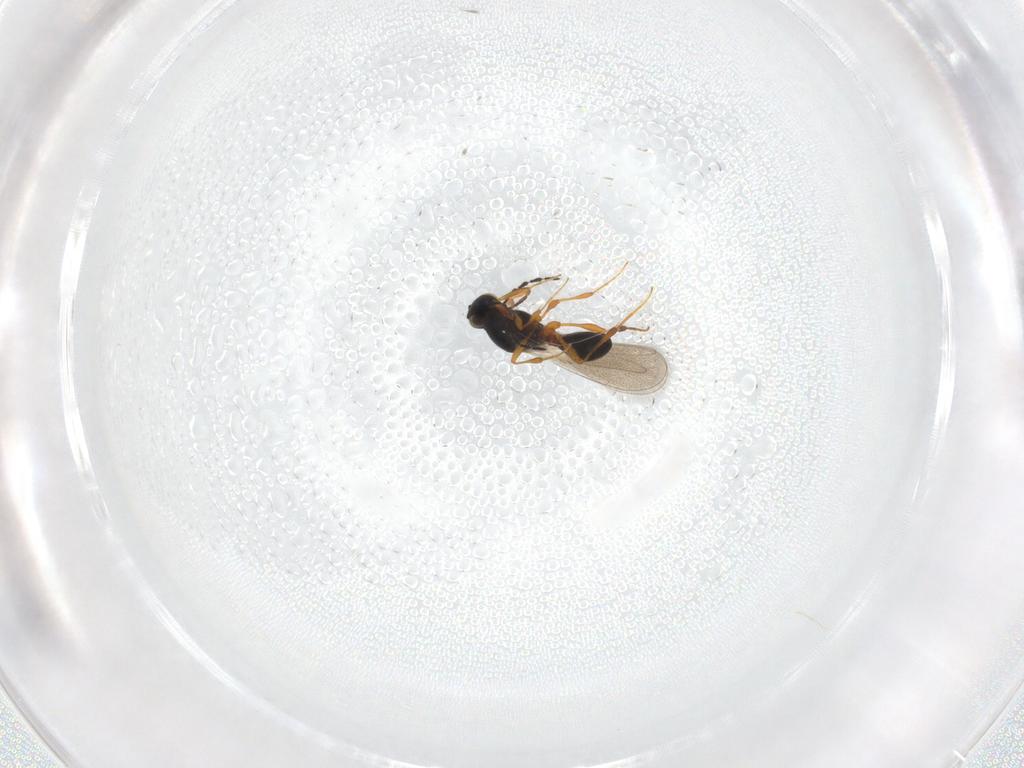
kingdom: Animalia
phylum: Arthropoda
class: Insecta
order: Hymenoptera
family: Platygastridae
